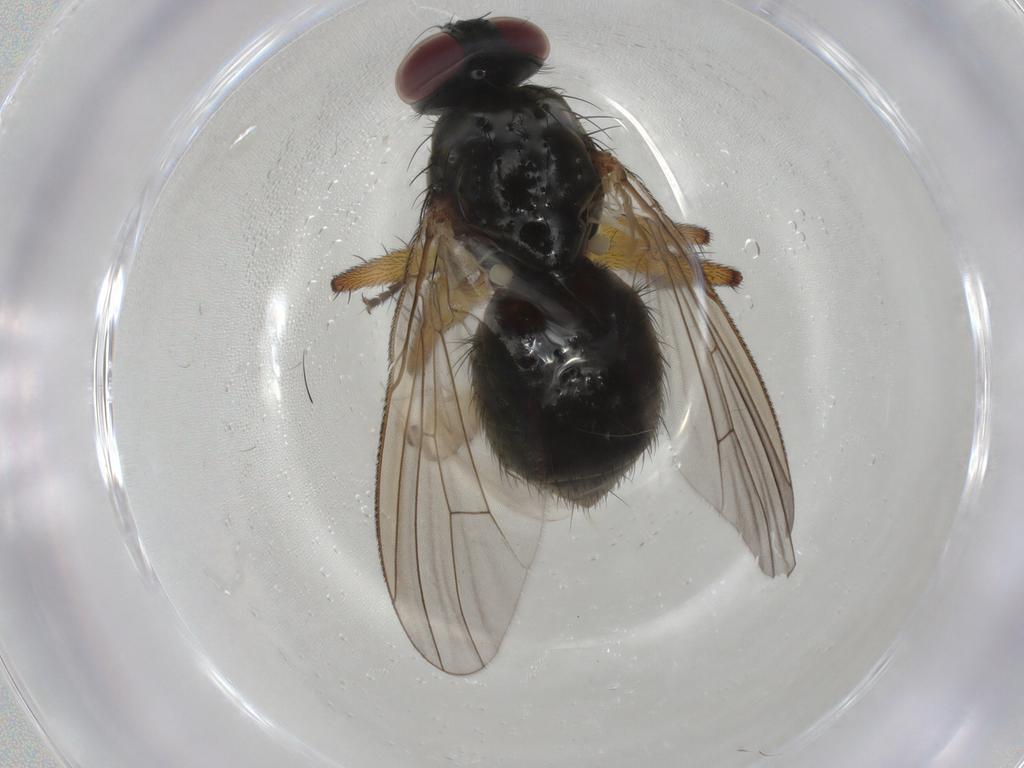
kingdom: Animalia
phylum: Arthropoda
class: Insecta
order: Diptera
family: Chironomidae
